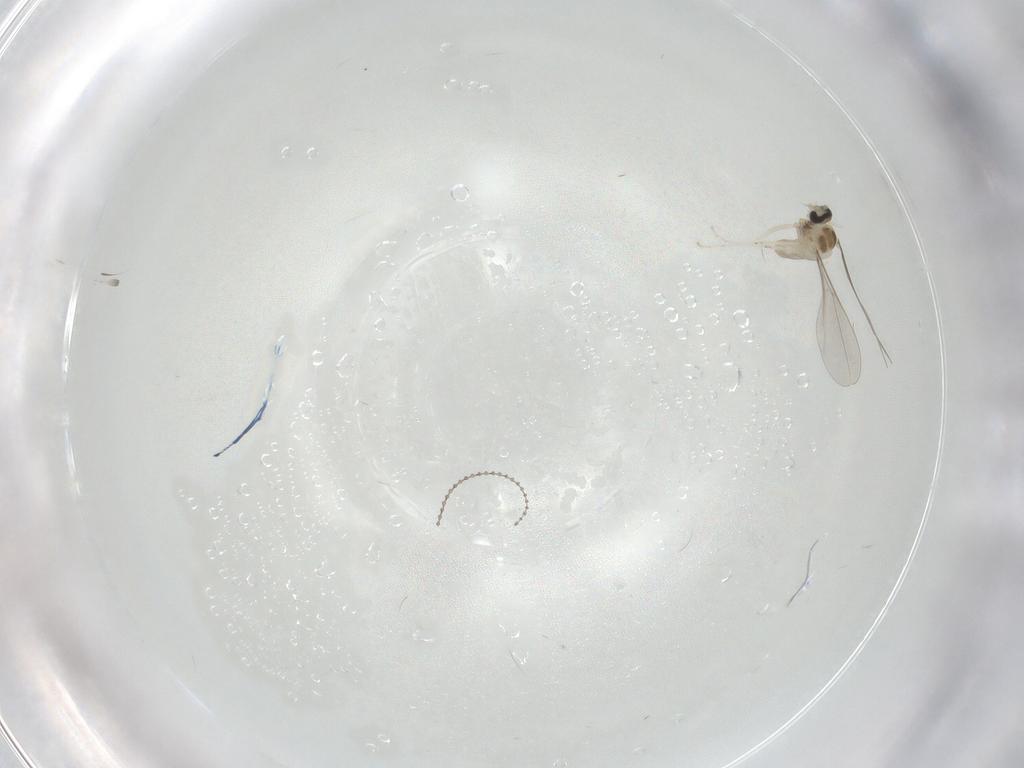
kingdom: Animalia
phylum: Arthropoda
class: Insecta
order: Diptera
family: Cecidomyiidae
